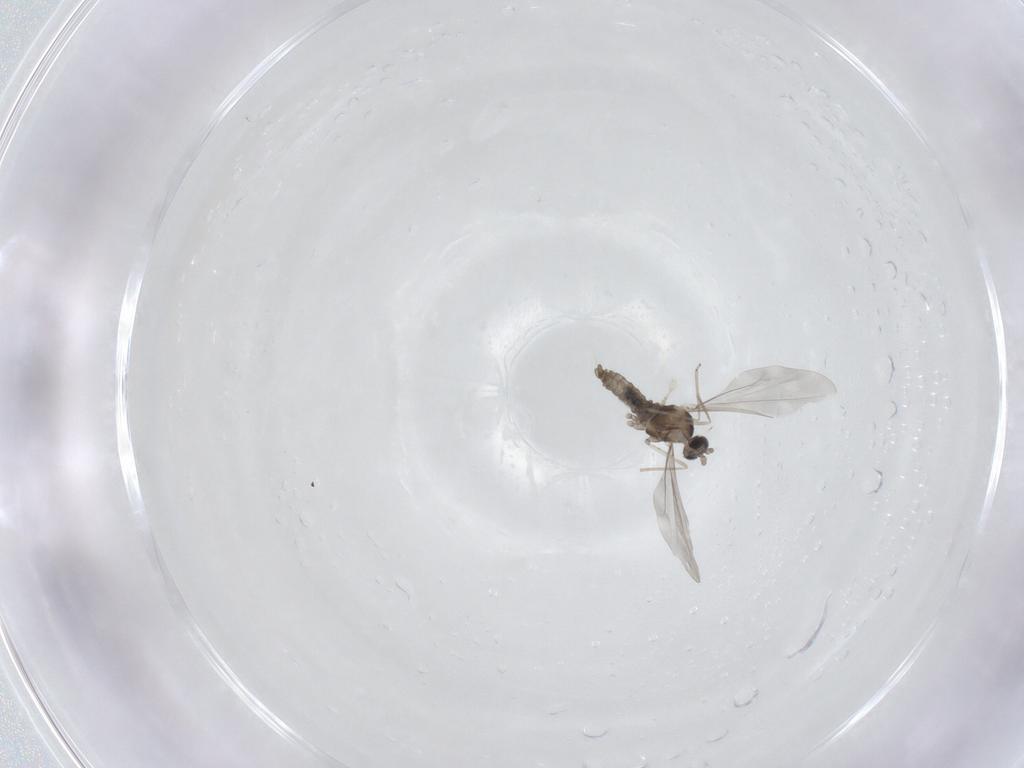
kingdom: Animalia
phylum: Arthropoda
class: Insecta
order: Diptera
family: Cecidomyiidae
